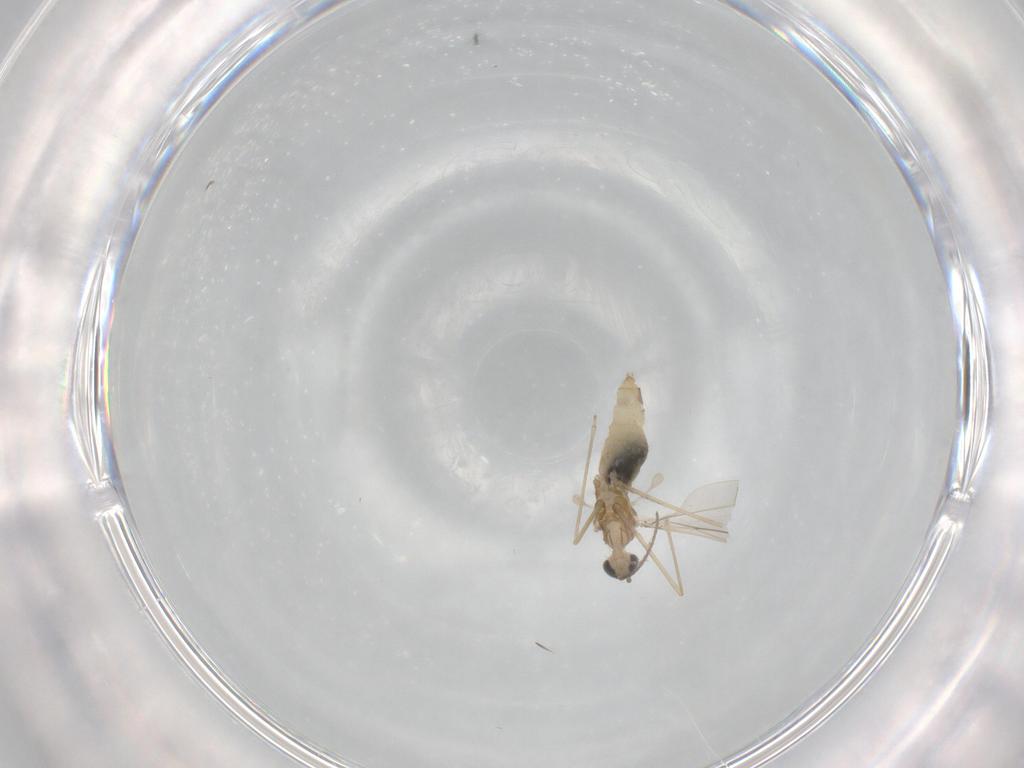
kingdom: Animalia
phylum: Arthropoda
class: Insecta
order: Diptera
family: Cecidomyiidae
